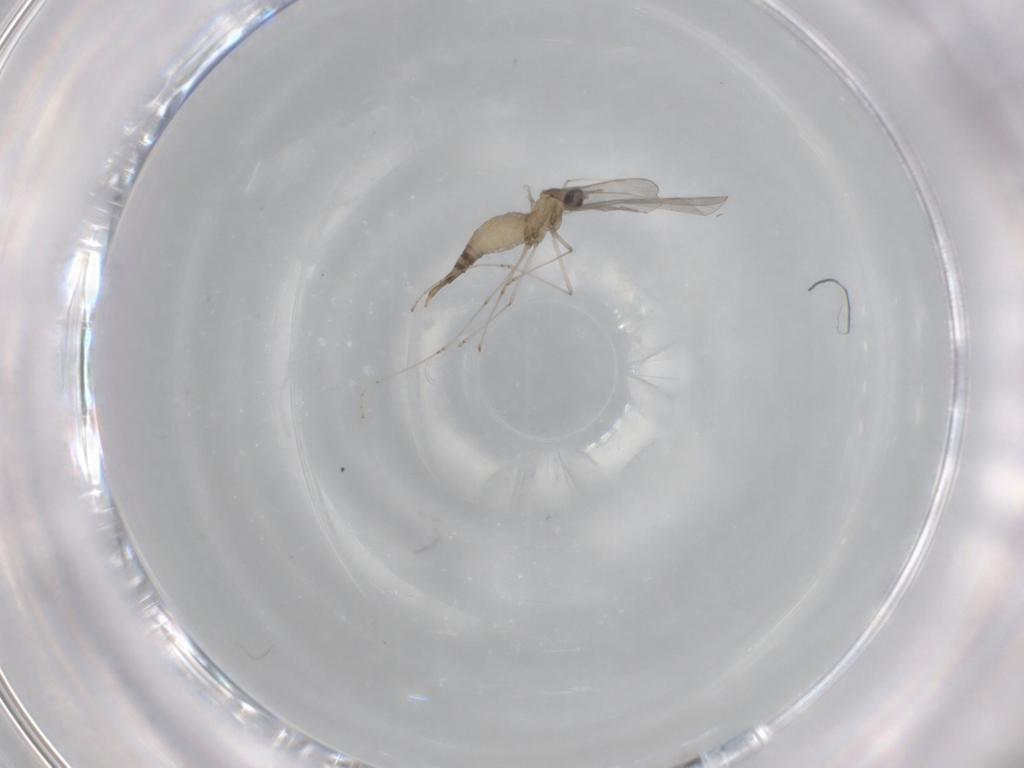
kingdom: Animalia
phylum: Arthropoda
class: Insecta
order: Diptera
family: Cecidomyiidae
